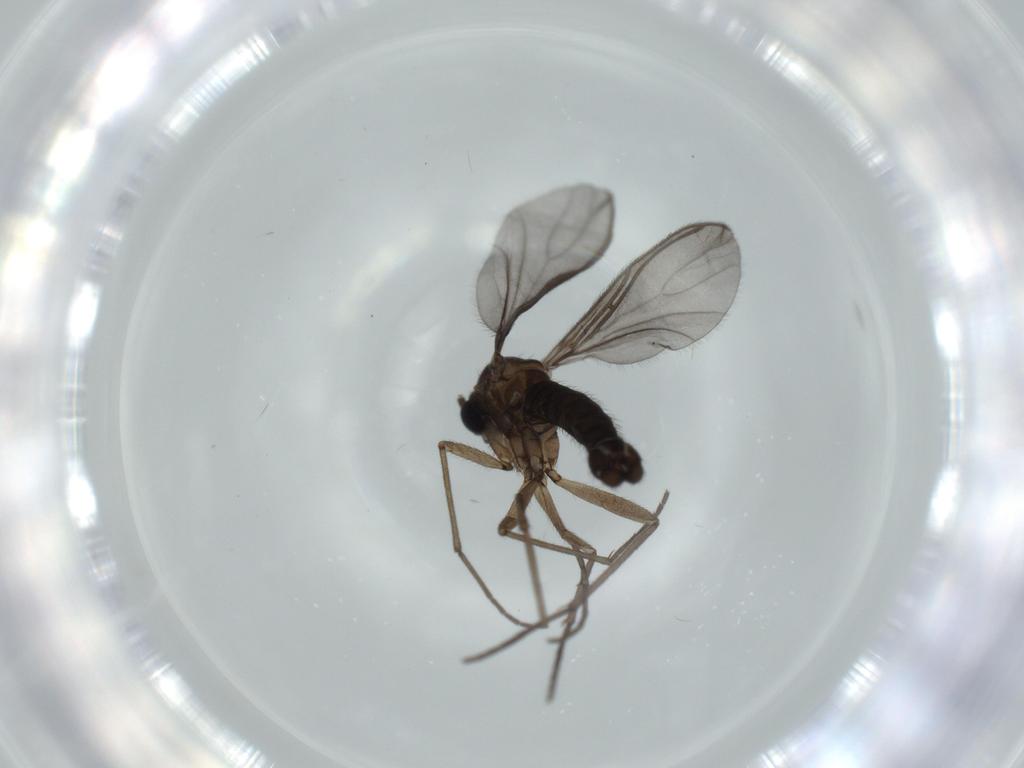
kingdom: Animalia
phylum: Arthropoda
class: Insecta
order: Diptera
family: Sciaridae
